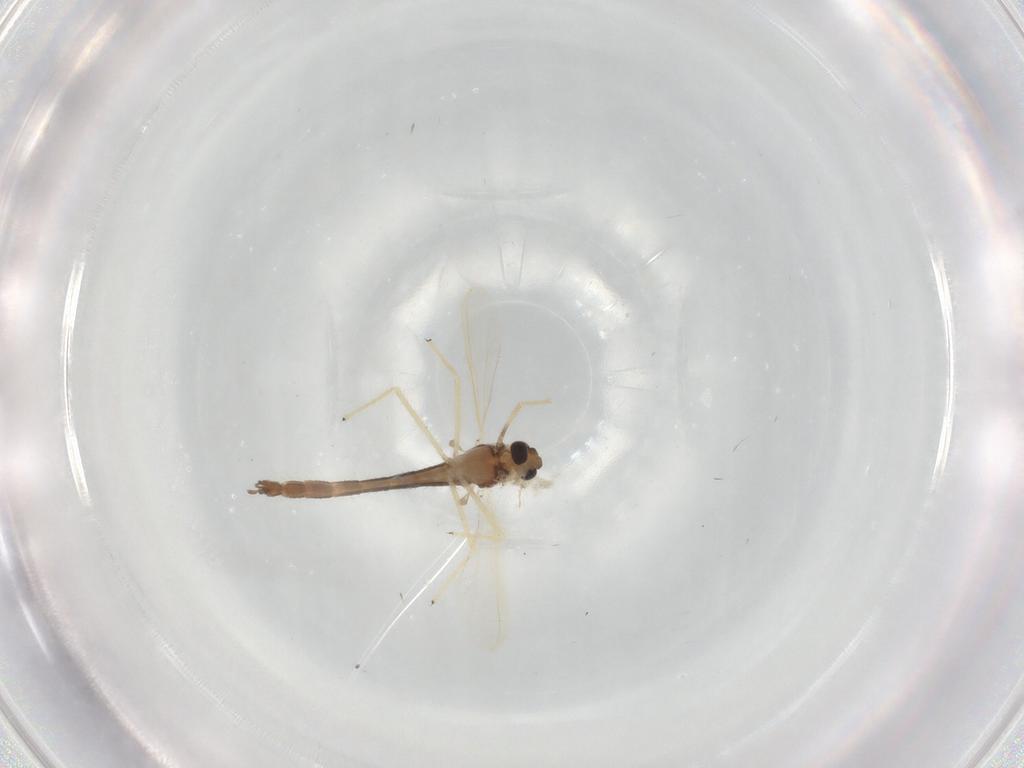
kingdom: Animalia
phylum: Arthropoda
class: Insecta
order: Diptera
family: Chironomidae
